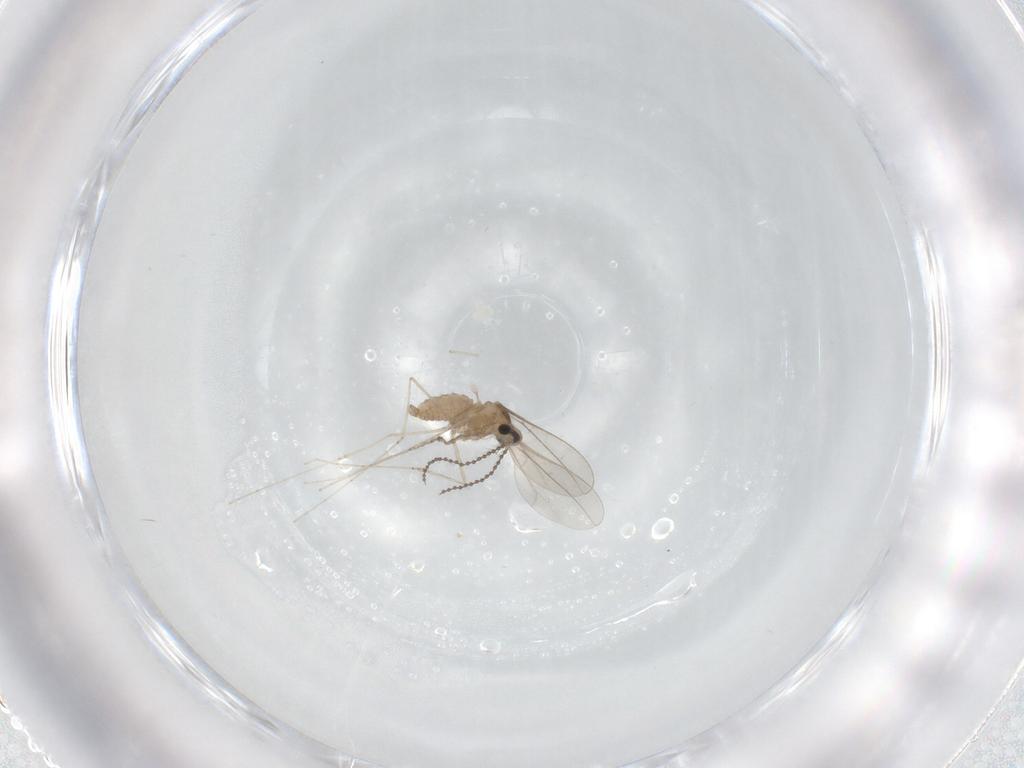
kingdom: Animalia
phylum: Arthropoda
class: Insecta
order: Diptera
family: Cecidomyiidae
